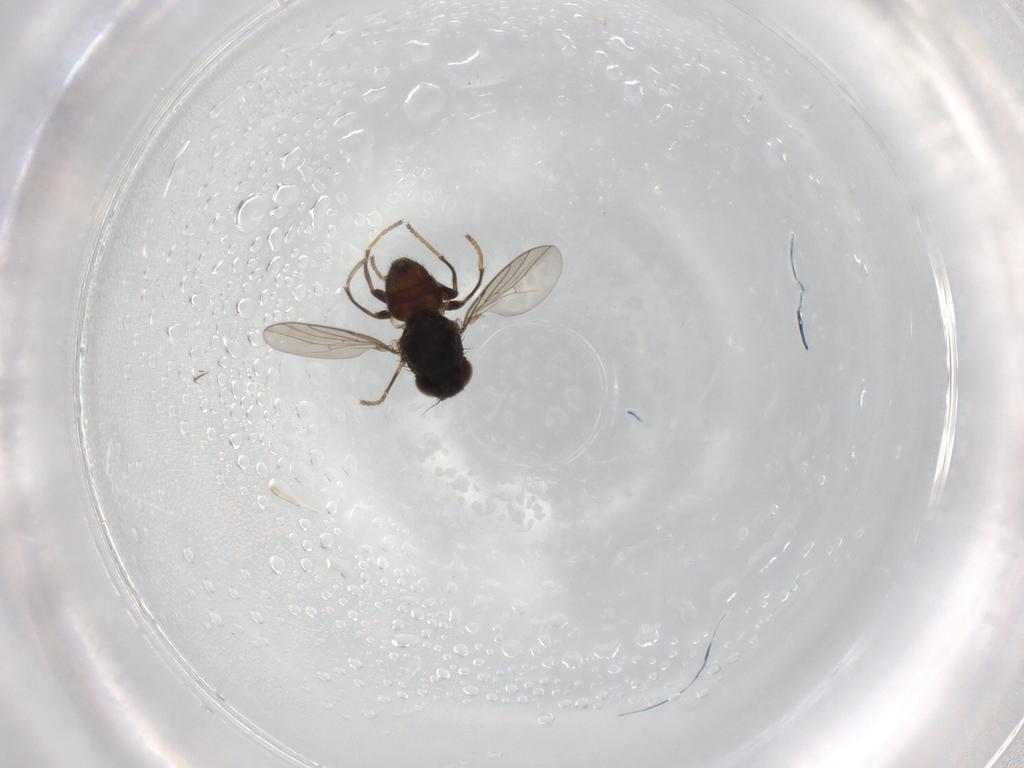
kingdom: Animalia
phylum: Arthropoda
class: Insecta
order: Diptera
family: Chloropidae
